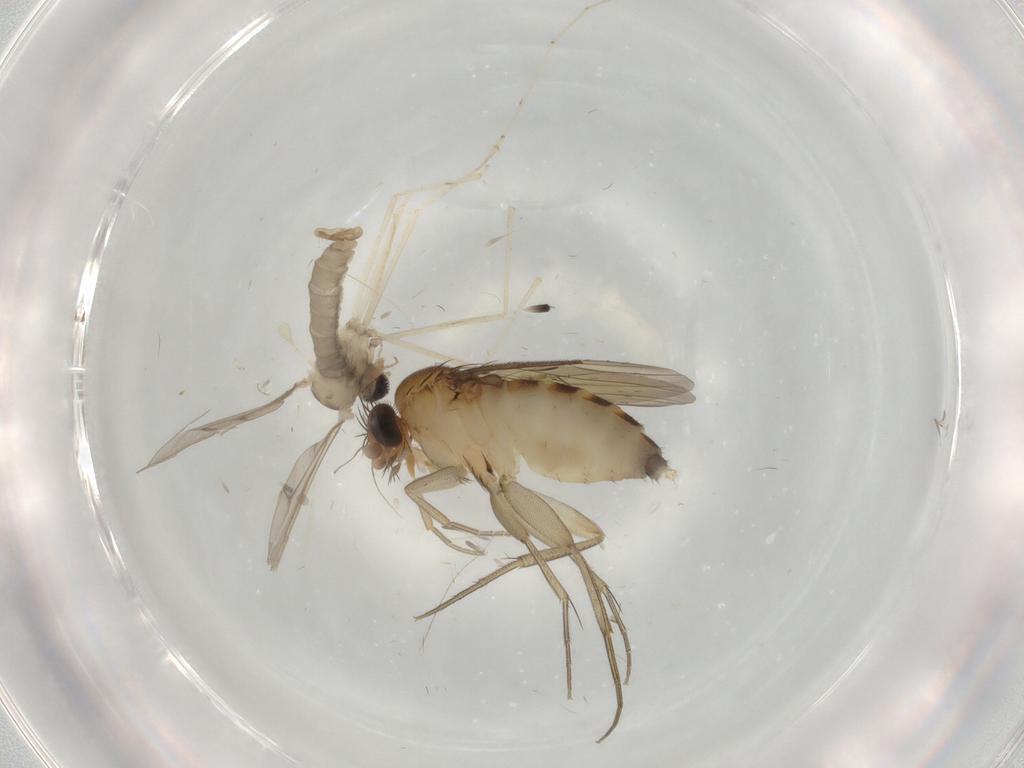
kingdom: Animalia
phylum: Arthropoda
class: Insecta
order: Diptera
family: Cecidomyiidae
